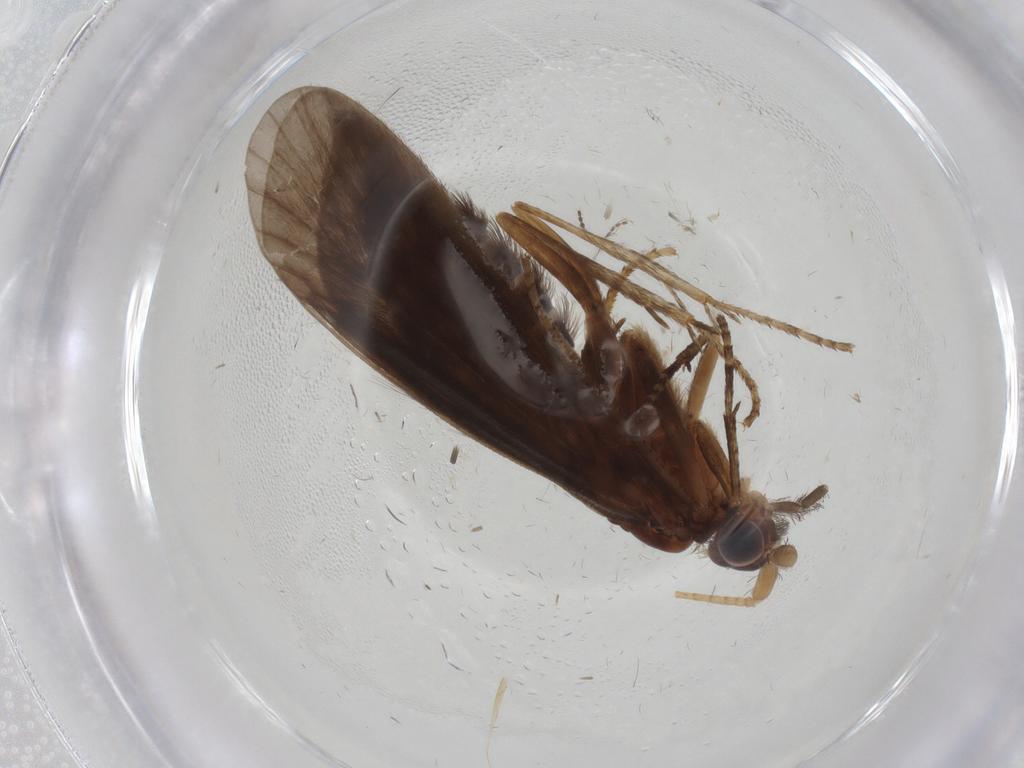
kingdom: Animalia
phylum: Arthropoda
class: Insecta
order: Trichoptera
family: Helicopsychidae
